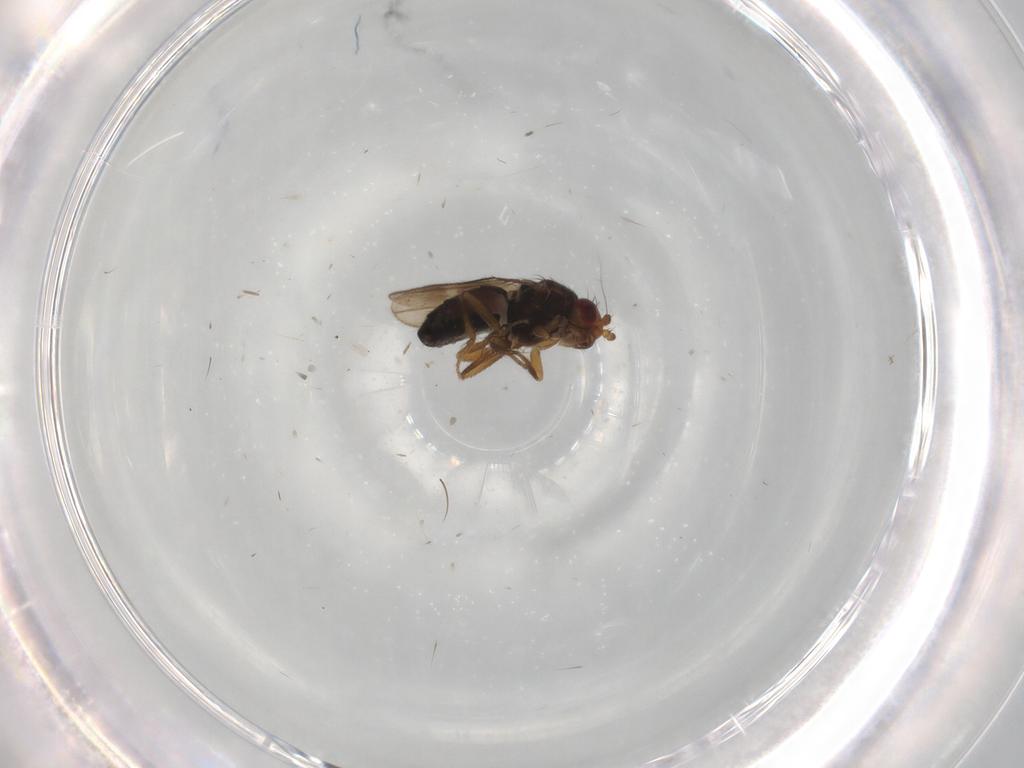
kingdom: Animalia
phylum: Arthropoda
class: Insecta
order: Diptera
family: Sphaeroceridae
